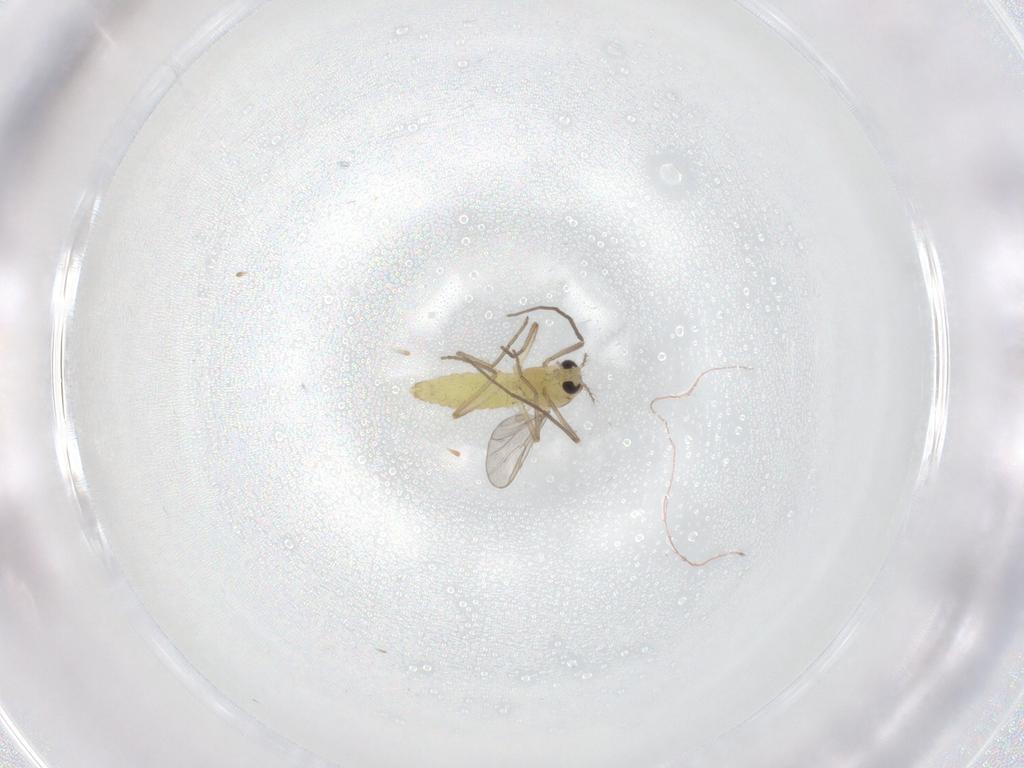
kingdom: Animalia
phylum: Arthropoda
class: Insecta
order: Diptera
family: Chironomidae
